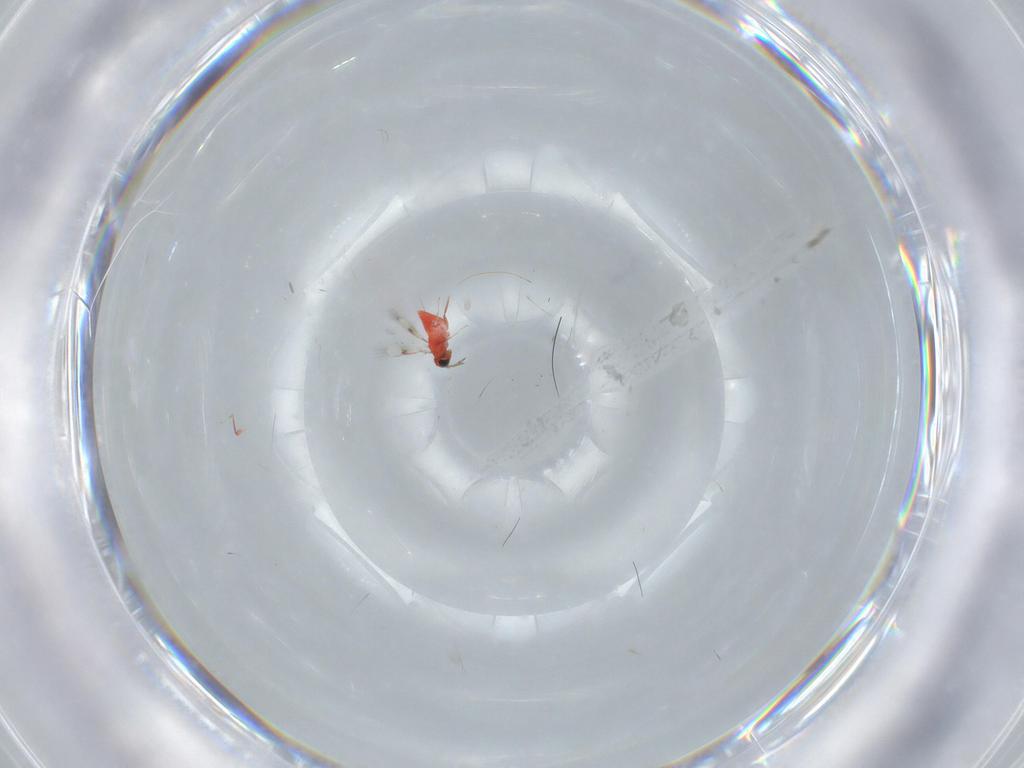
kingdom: Animalia
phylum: Arthropoda
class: Insecta
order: Hymenoptera
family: Trichogrammatidae
